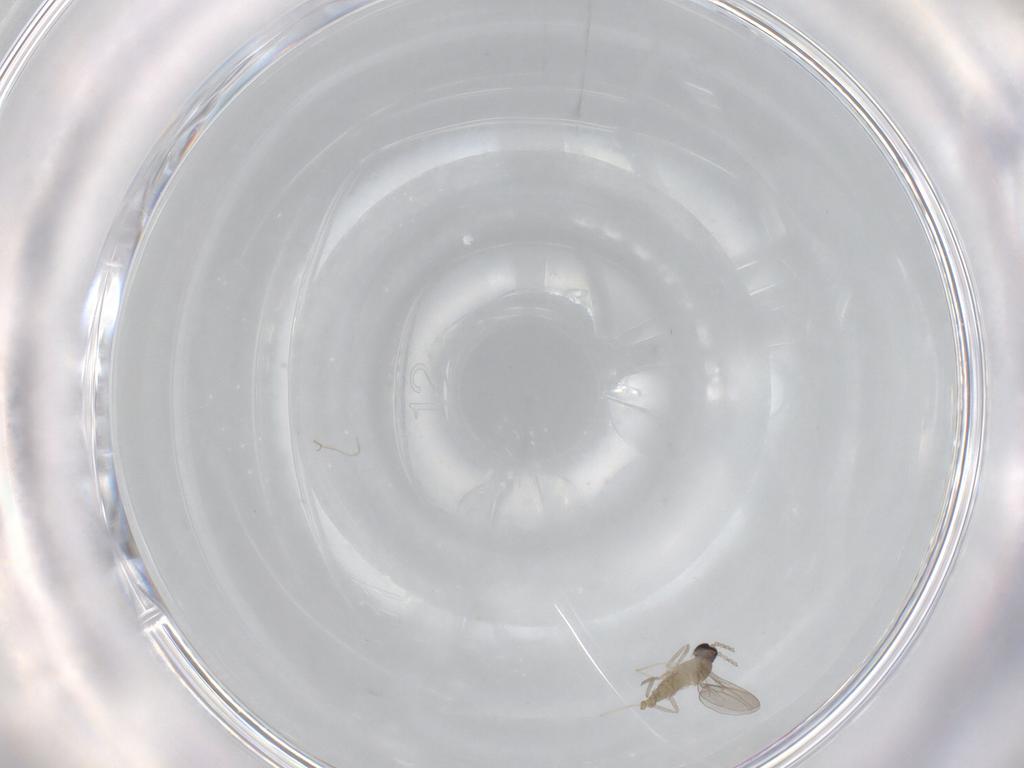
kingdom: Animalia
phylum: Arthropoda
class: Insecta
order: Diptera
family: Cecidomyiidae
